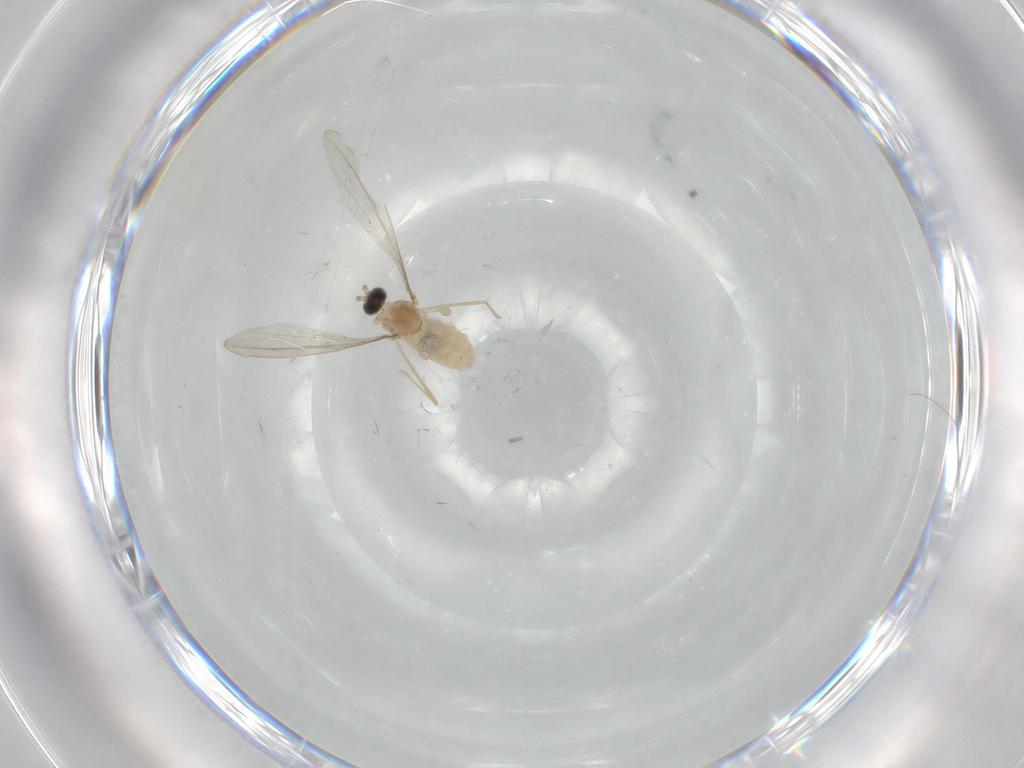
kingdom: Animalia
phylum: Arthropoda
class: Insecta
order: Diptera
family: Cecidomyiidae
